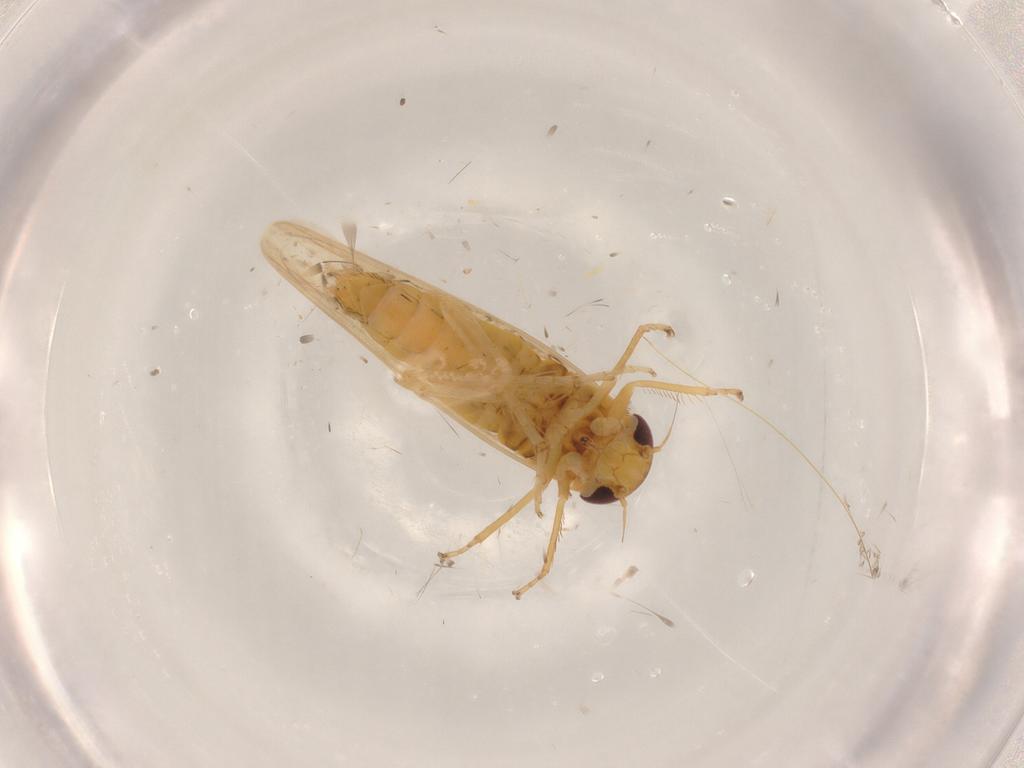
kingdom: Animalia
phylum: Arthropoda
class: Insecta
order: Hemiptera
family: Cicadellidae
